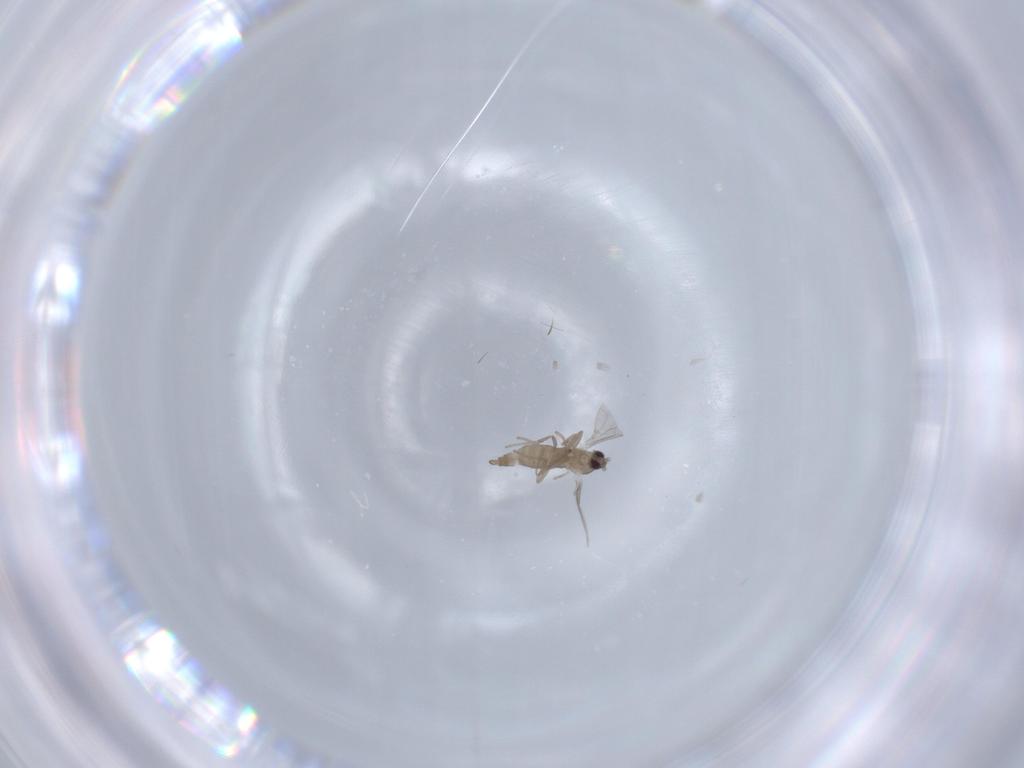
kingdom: Animalia
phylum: Arthropoda
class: Insecta
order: Diptera
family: Cecidomyiidae
